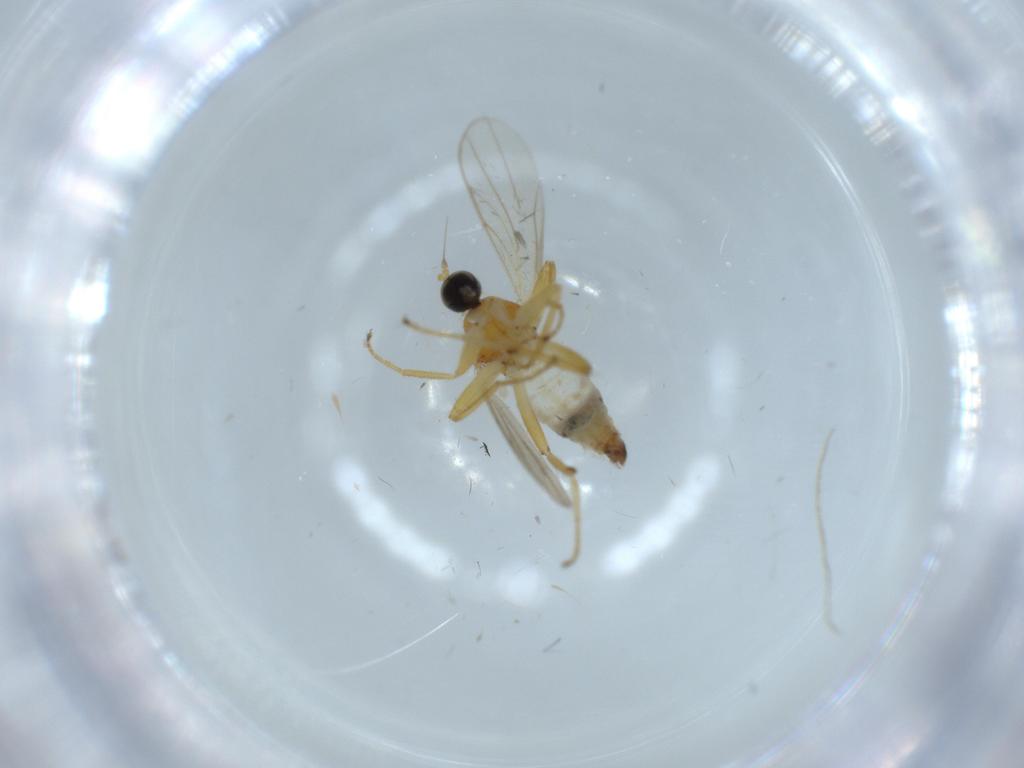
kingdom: Animalia
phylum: Arthropoda
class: Insecta
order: Diptera
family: Hybotidae
